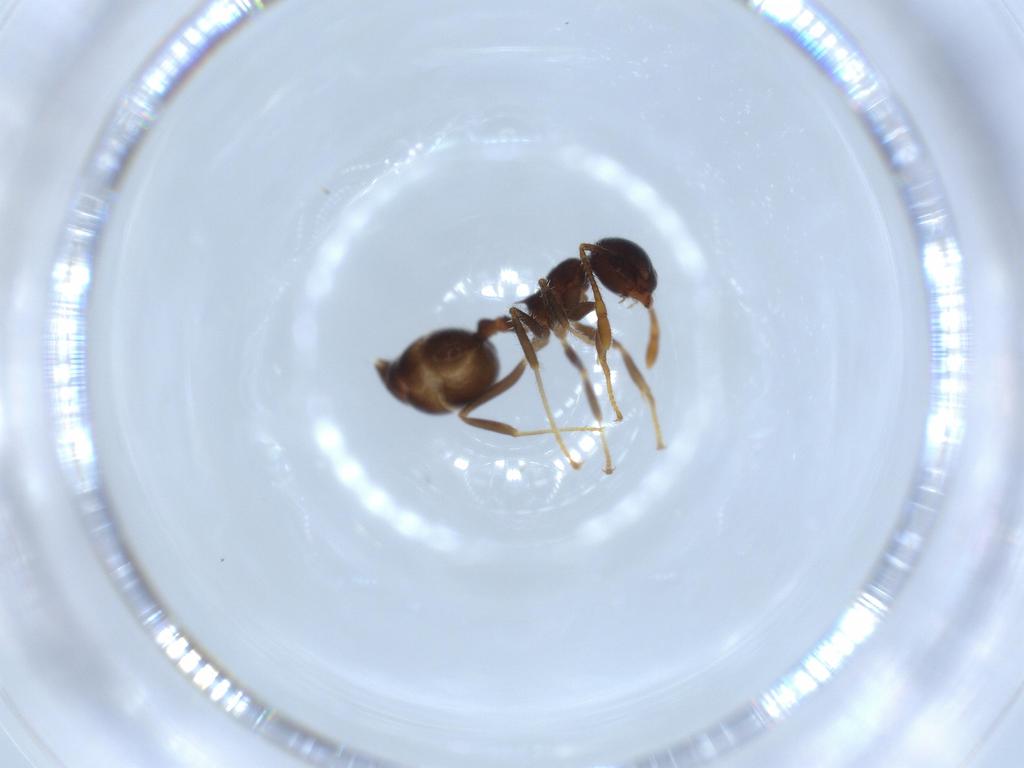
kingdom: Animalia
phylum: Arthropoda
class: Insecta
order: Hymenoptera
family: Formicidae
